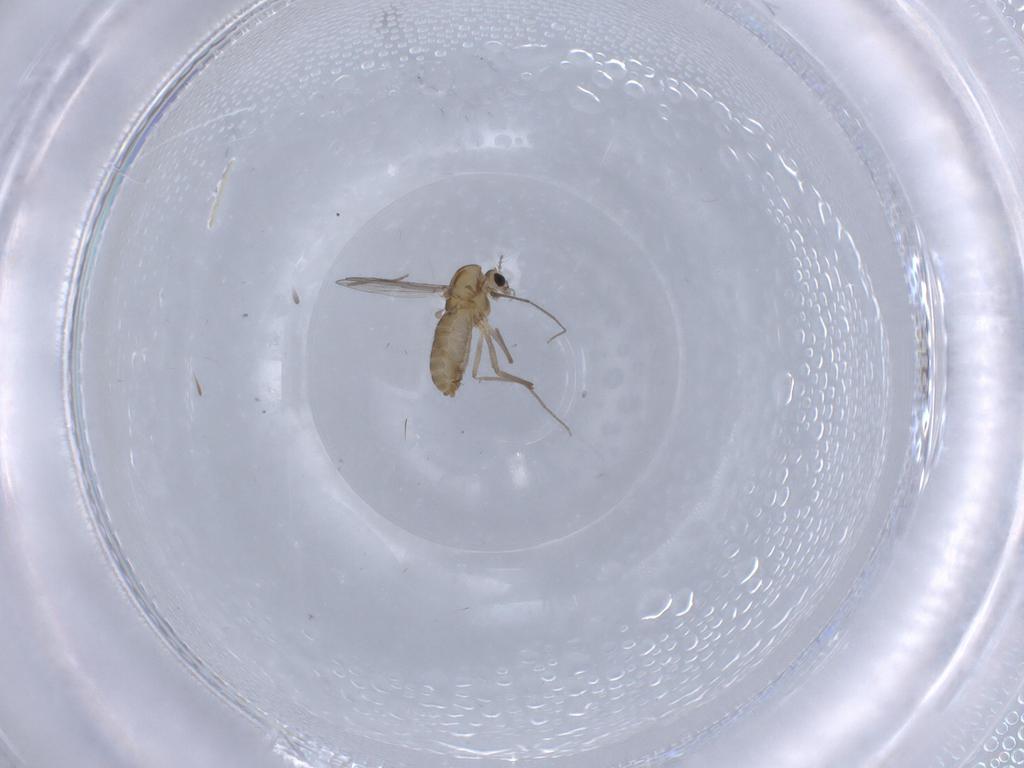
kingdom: Animalia
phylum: Arthropoda
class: Insecta
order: Diptera
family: Chironomidae
